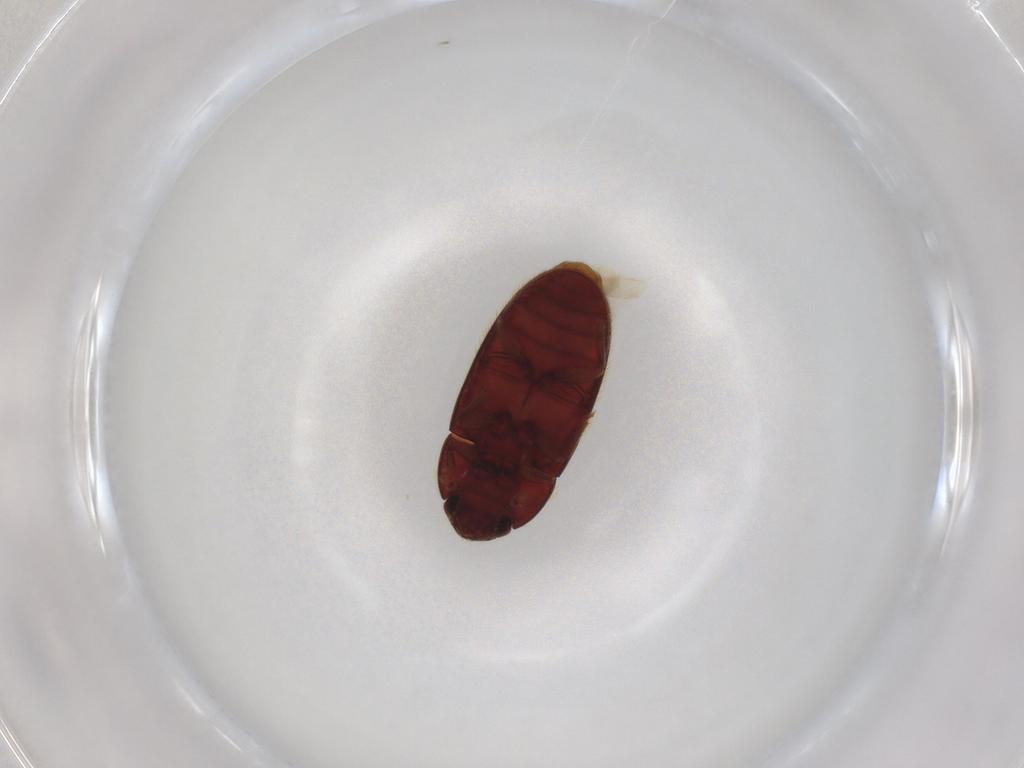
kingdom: Animalia
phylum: Arthropoda
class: Insecta
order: Coleoptera
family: Biphyllidae
